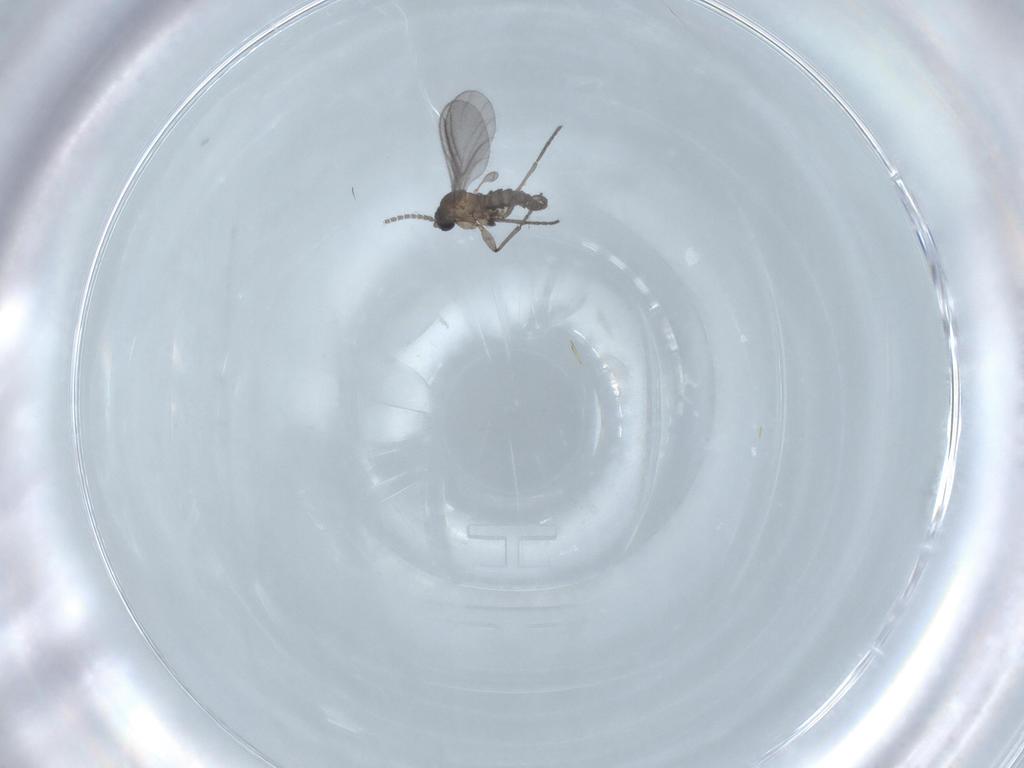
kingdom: Animalia
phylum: Arthropoda
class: Insecta
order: Diptera
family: Sciaridae
